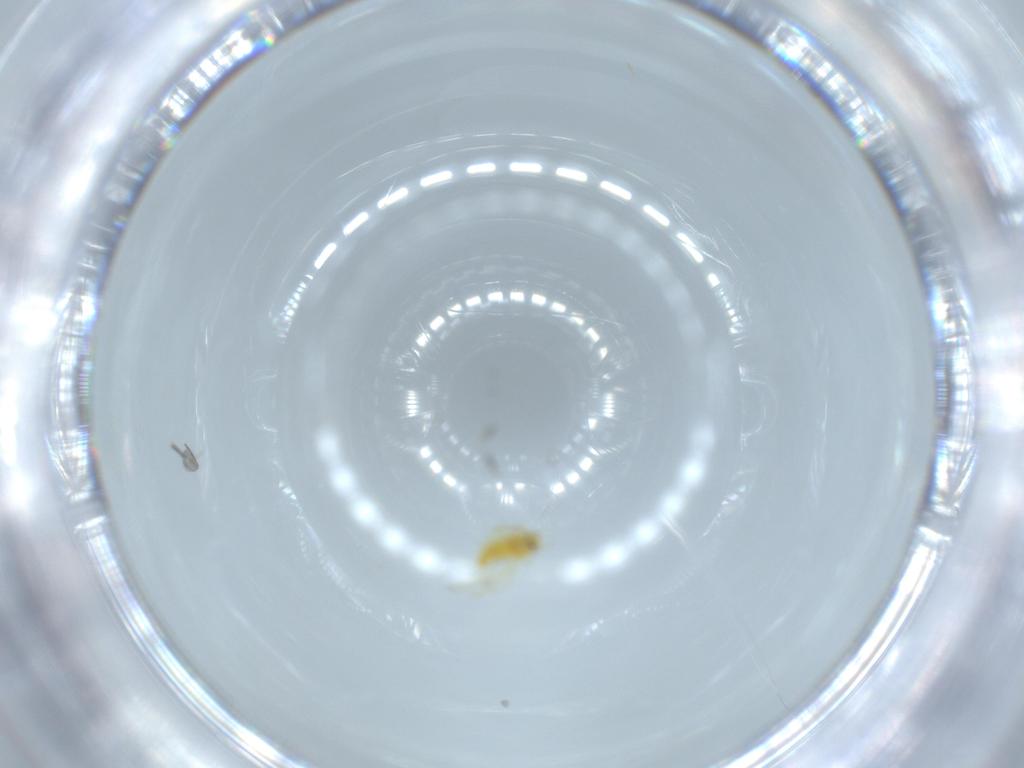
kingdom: Animalia
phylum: Arthropoda
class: Insecta
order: Hemiptera
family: Aleyrodidae
